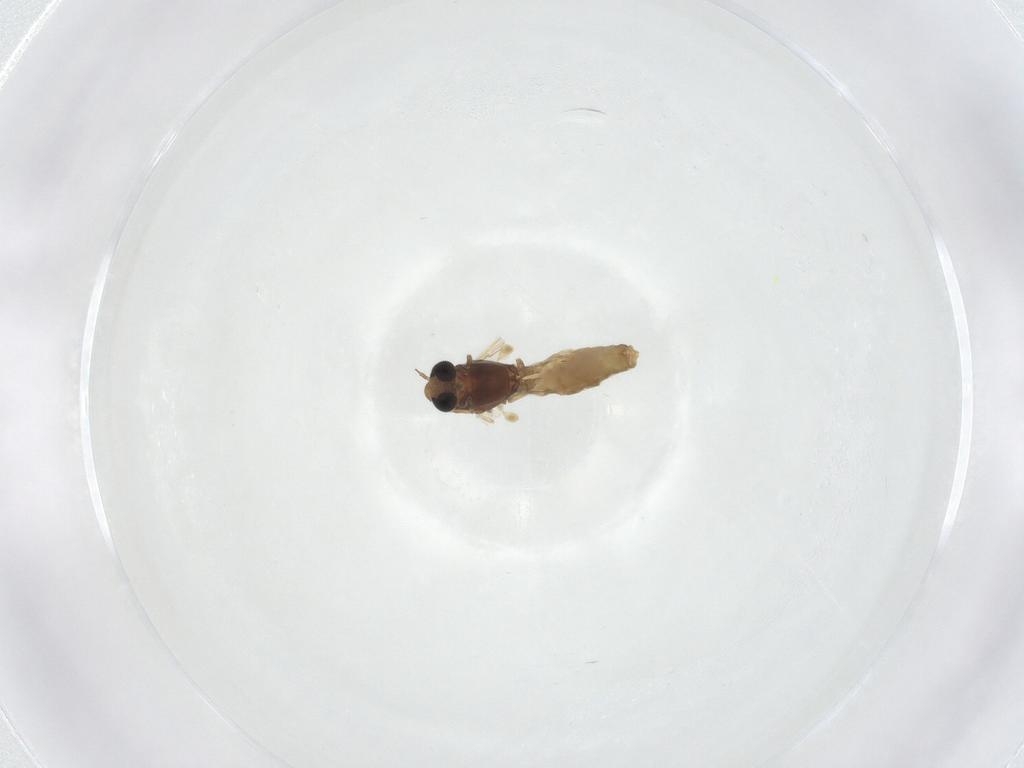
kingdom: Animalia
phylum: Arthropoda
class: Insecta
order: Diptera
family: Chironomidae
